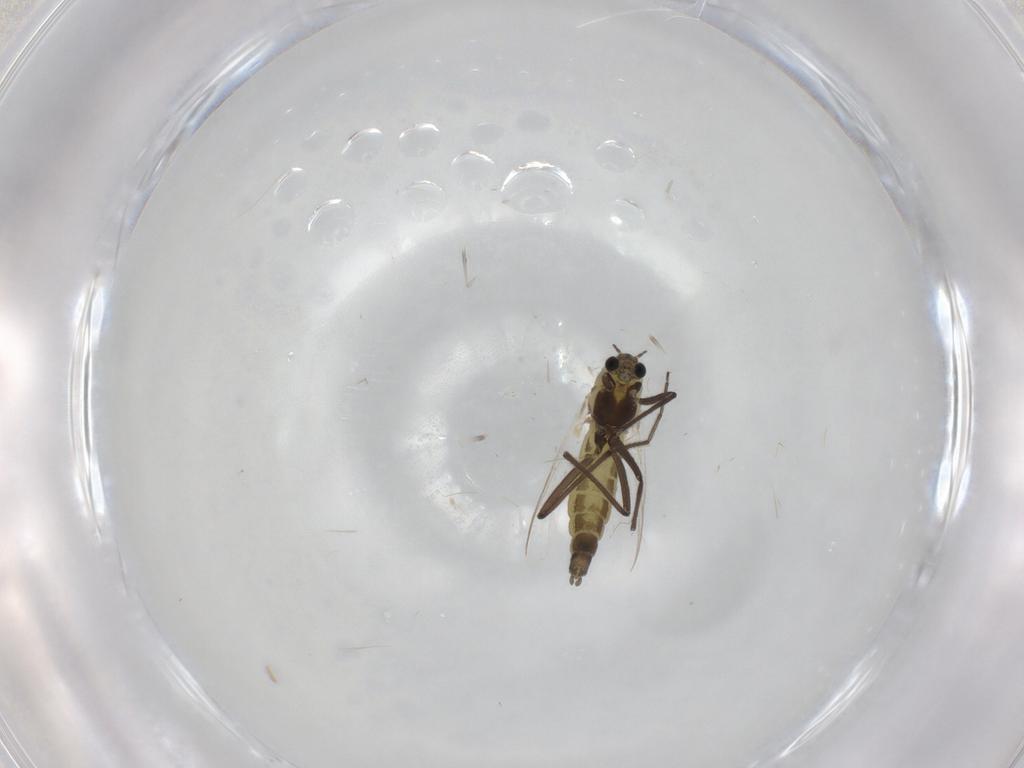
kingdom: Animalia
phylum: Arthropoda
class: Insecta
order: Diptera
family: Chironomidae
